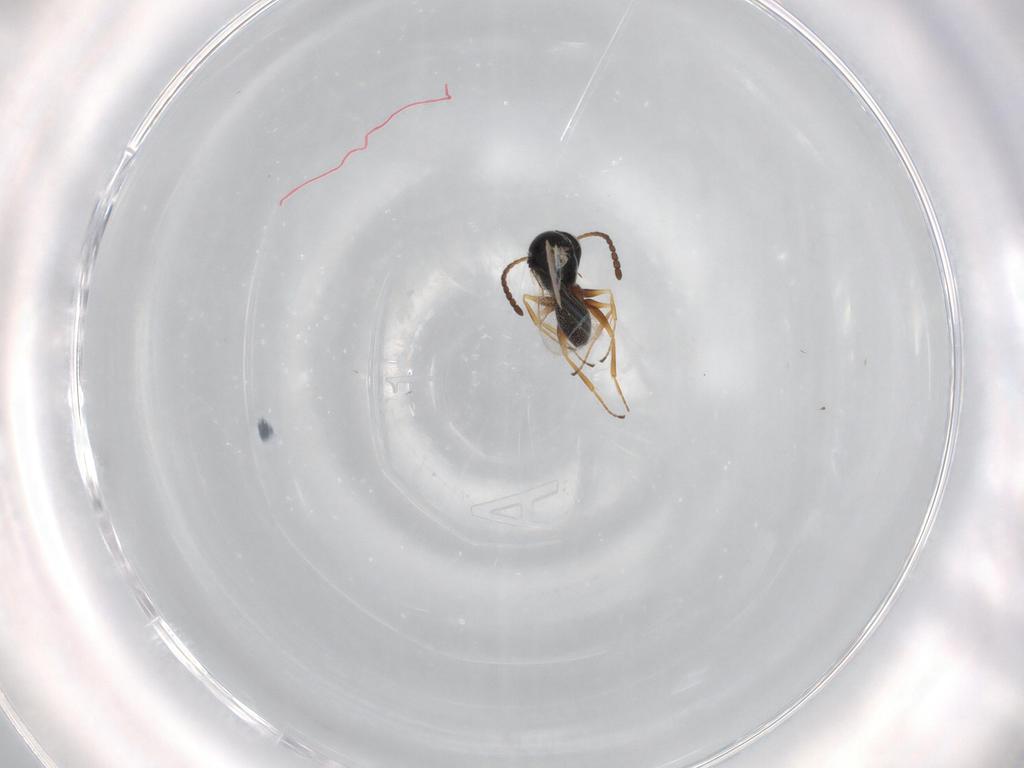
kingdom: Animalia
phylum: Arthropoda
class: Insecta
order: Hymenoptera
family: Figitidae
